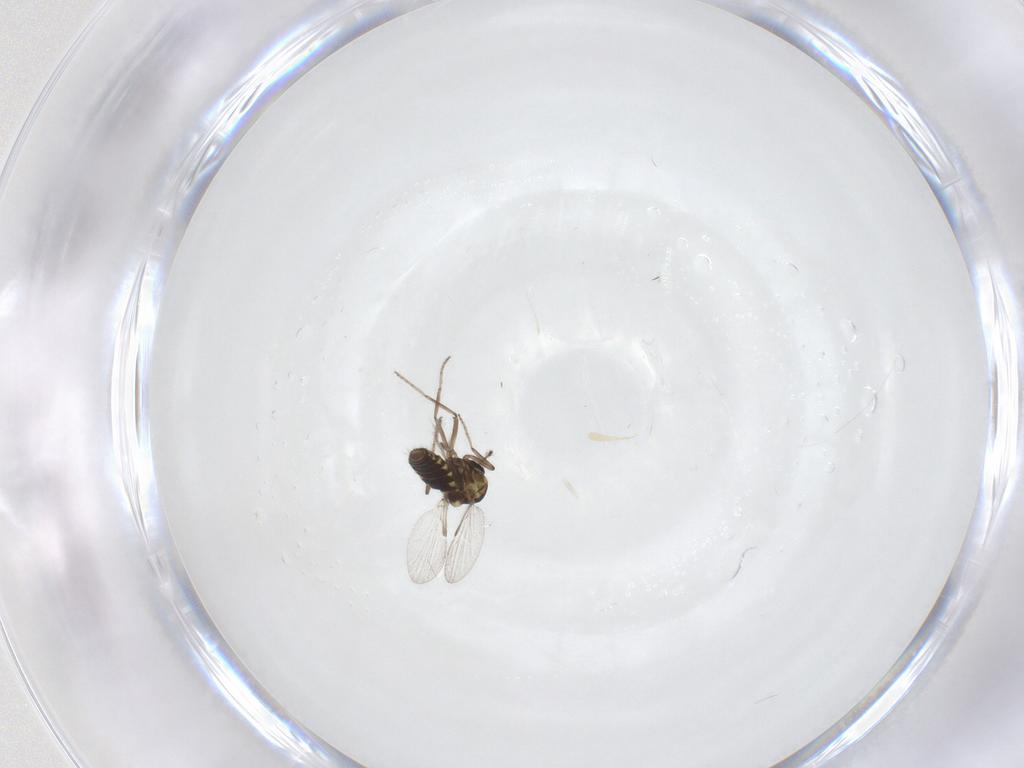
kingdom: Animalia
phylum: Arthropoda
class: Insecta
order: Diptera
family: Ceratopogonidae
